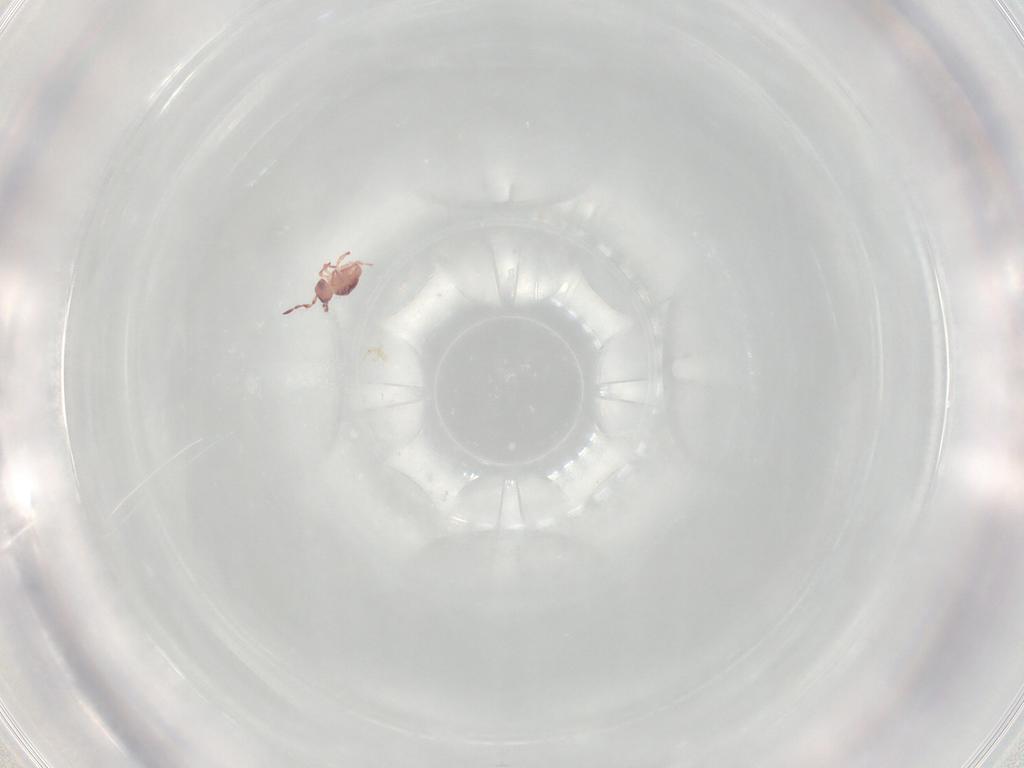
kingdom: Animalia
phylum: Arthropoda
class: Collembola
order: Symphypleona
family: Sminthurididae
